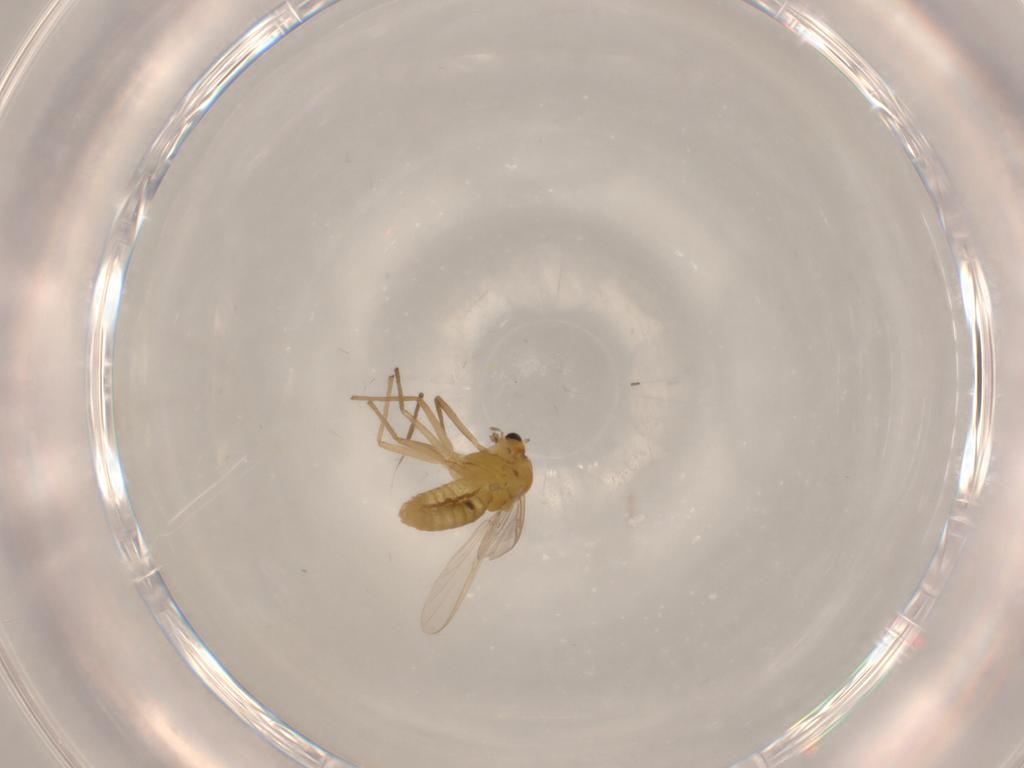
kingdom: Animalia
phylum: Arthropoda
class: Insecta
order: Diptera
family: Chironomidae
